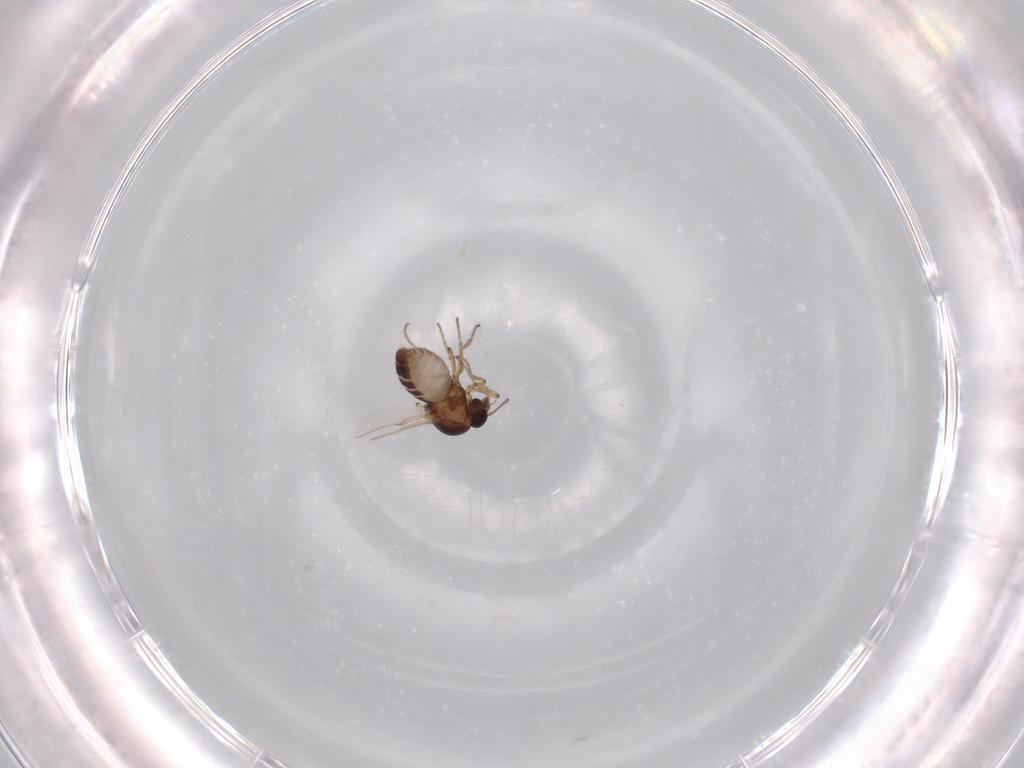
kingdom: Animalia
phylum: Arthropoda
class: Insecta
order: Diptera
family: Ceratopogonidae
